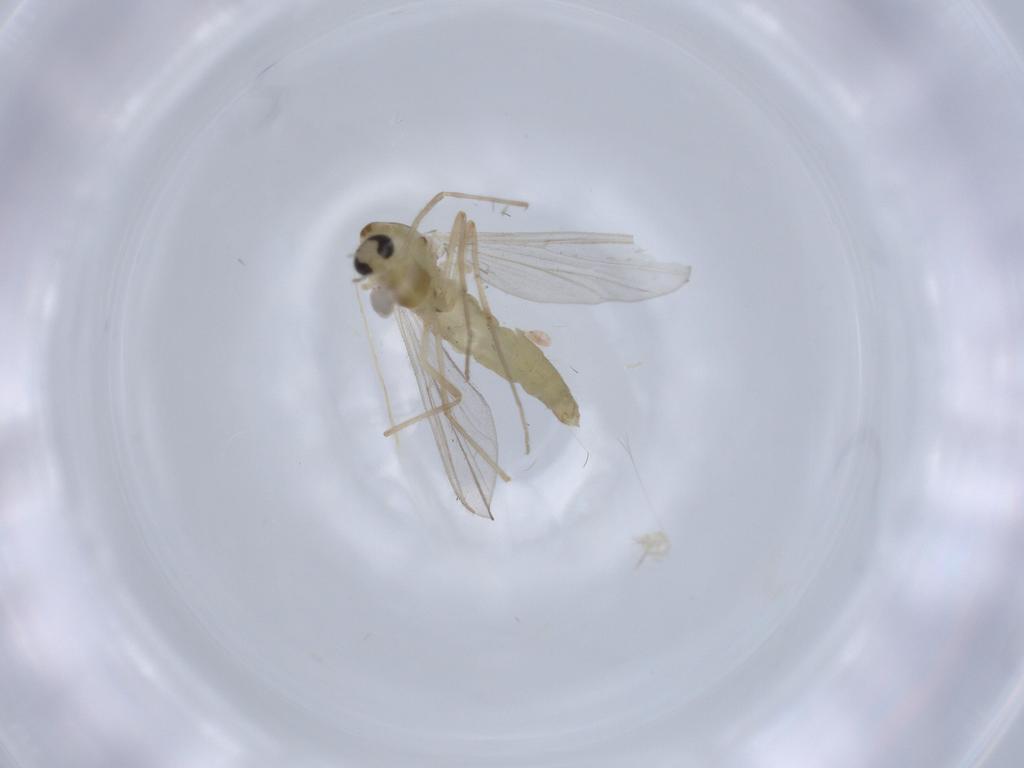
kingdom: Animalia
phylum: Arthropoda
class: Insecta
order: Diptera
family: Chironomidae
